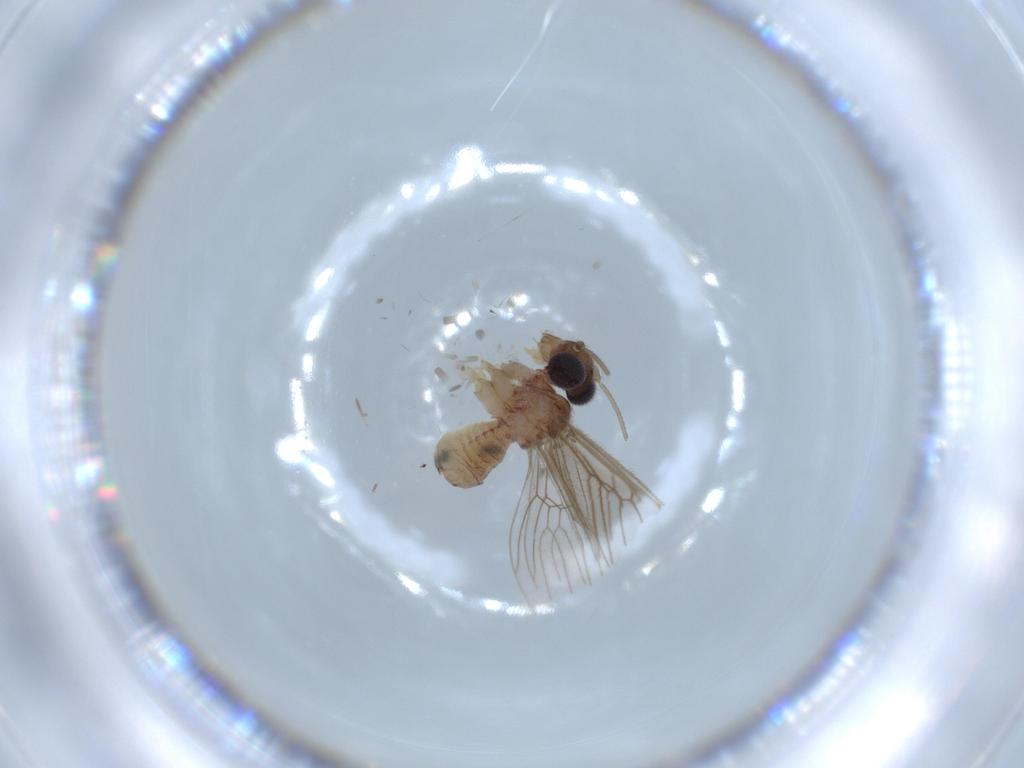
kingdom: Animalia
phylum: Arthropoda
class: Insecta
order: Psocodea
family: Cladiopsocidae
